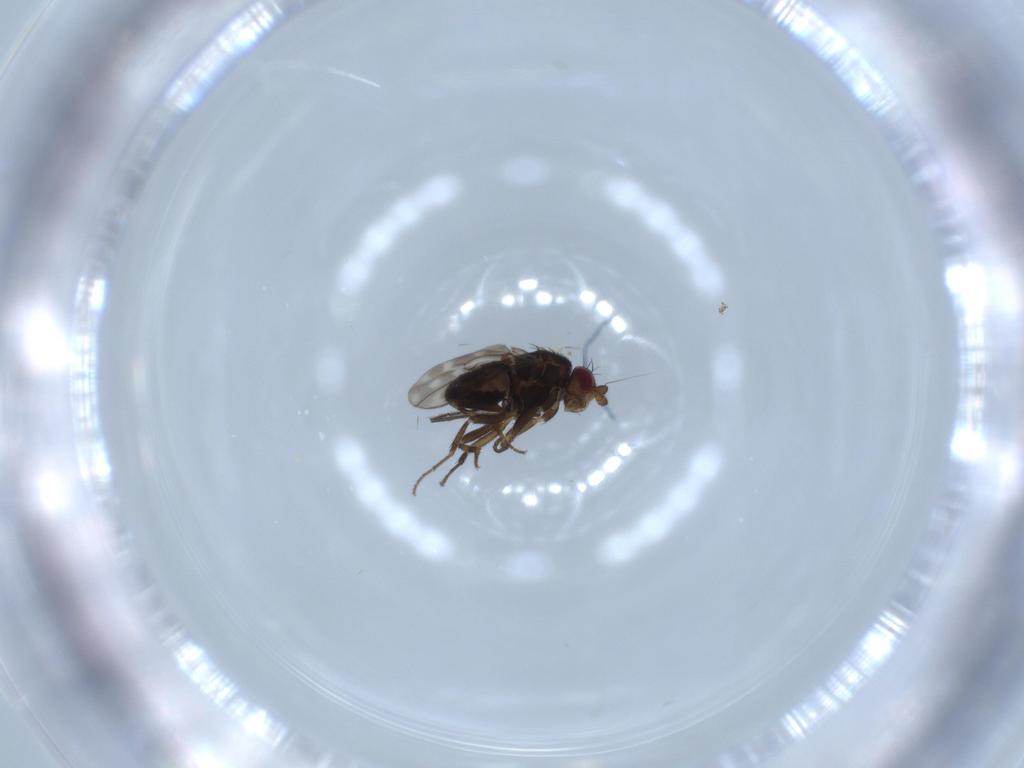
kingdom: Animalia
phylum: Arthropoda
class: Insecta
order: Diptera
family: Sphaeroceridae
